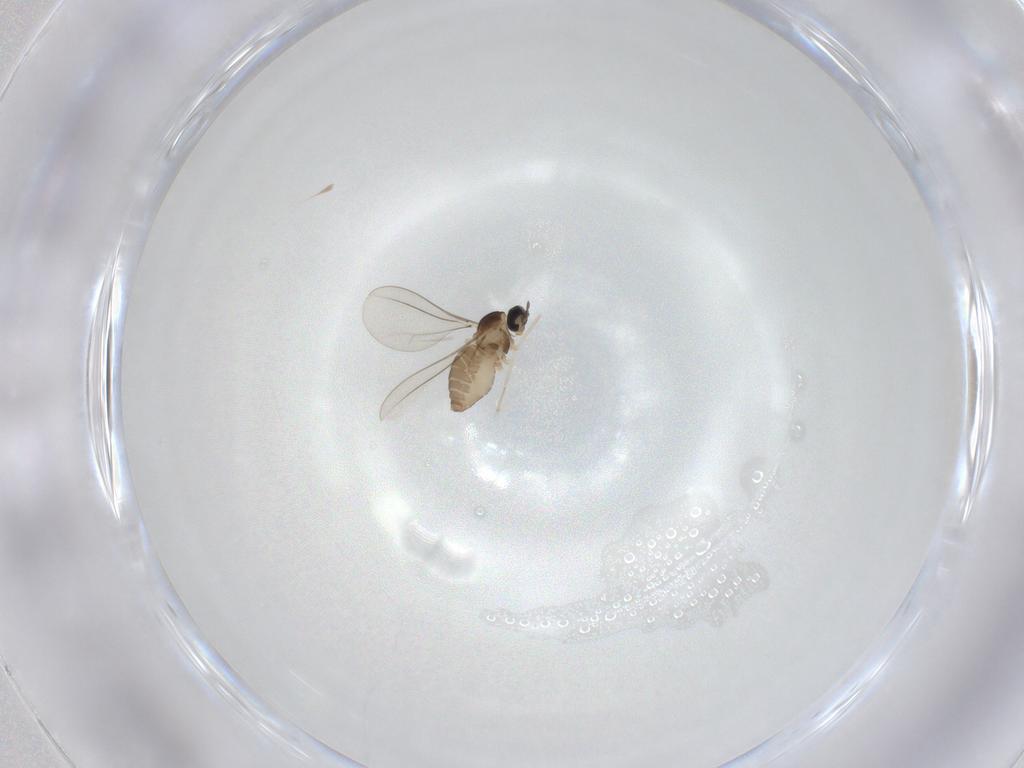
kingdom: Animalia
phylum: Arthropoda
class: Insecta
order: Diptera
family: Cecidomyiidae
